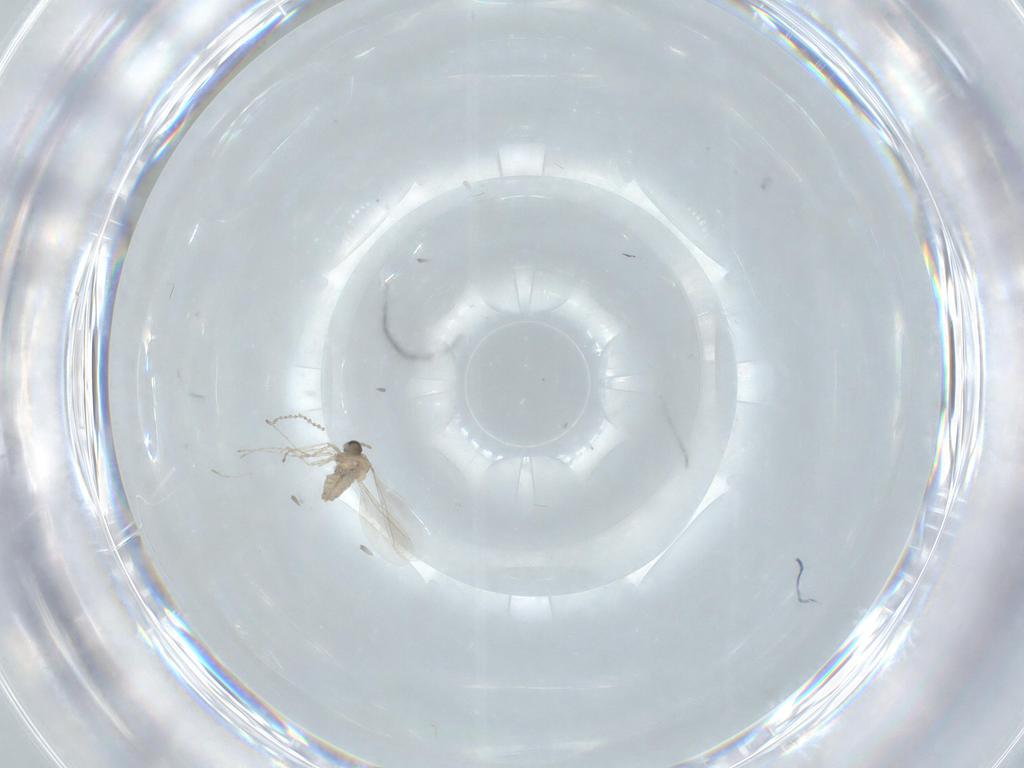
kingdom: Animalia
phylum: Arthropoda
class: Insecta
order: Diptera
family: Cecidomyiidae
